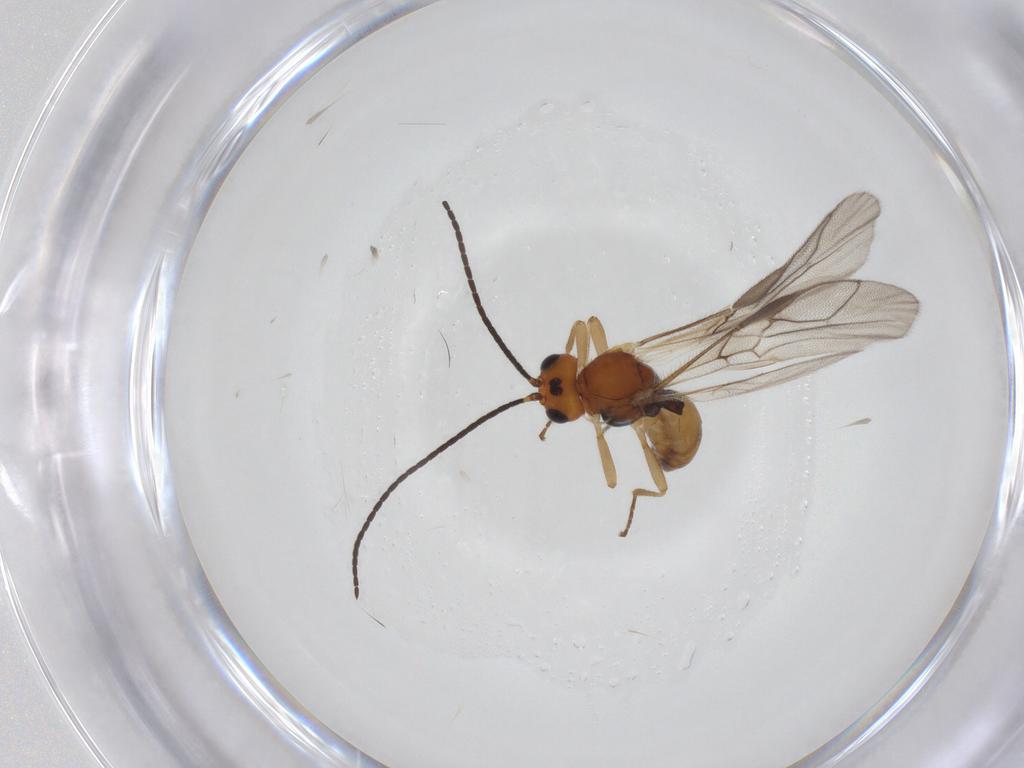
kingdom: Animalia
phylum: Arthropoda
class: Insecta
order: Hymenoptera
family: Braconidae
